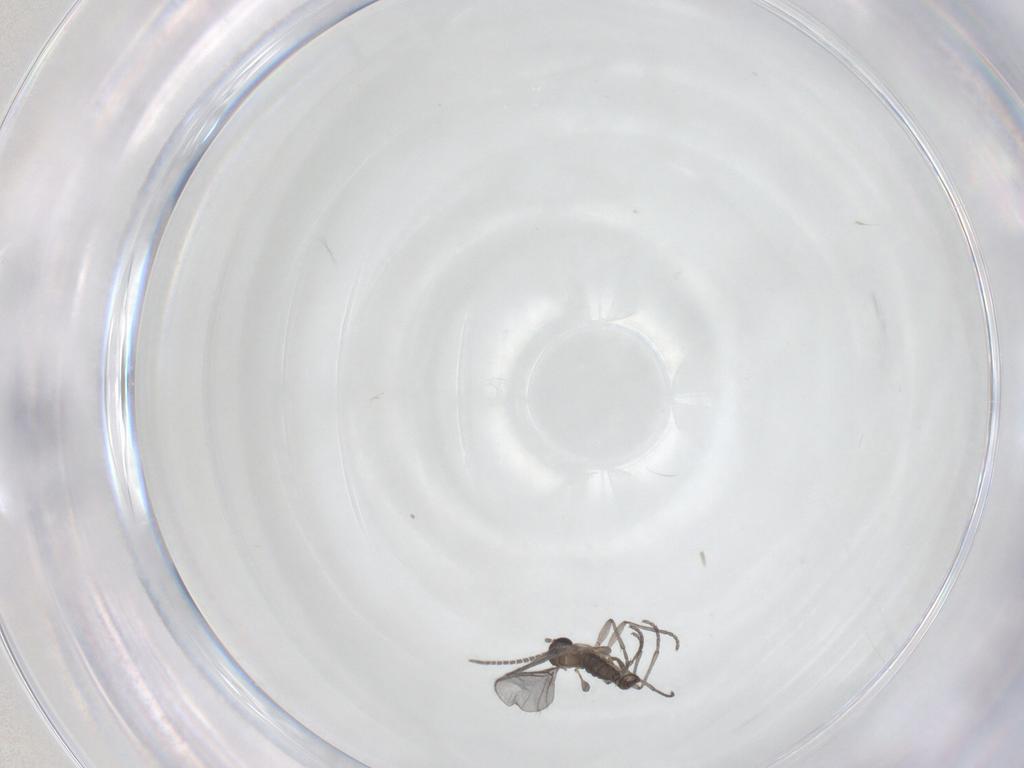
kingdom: Animalia
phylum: Arthropoda
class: Insecta
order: Diptera
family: Sciaridae
